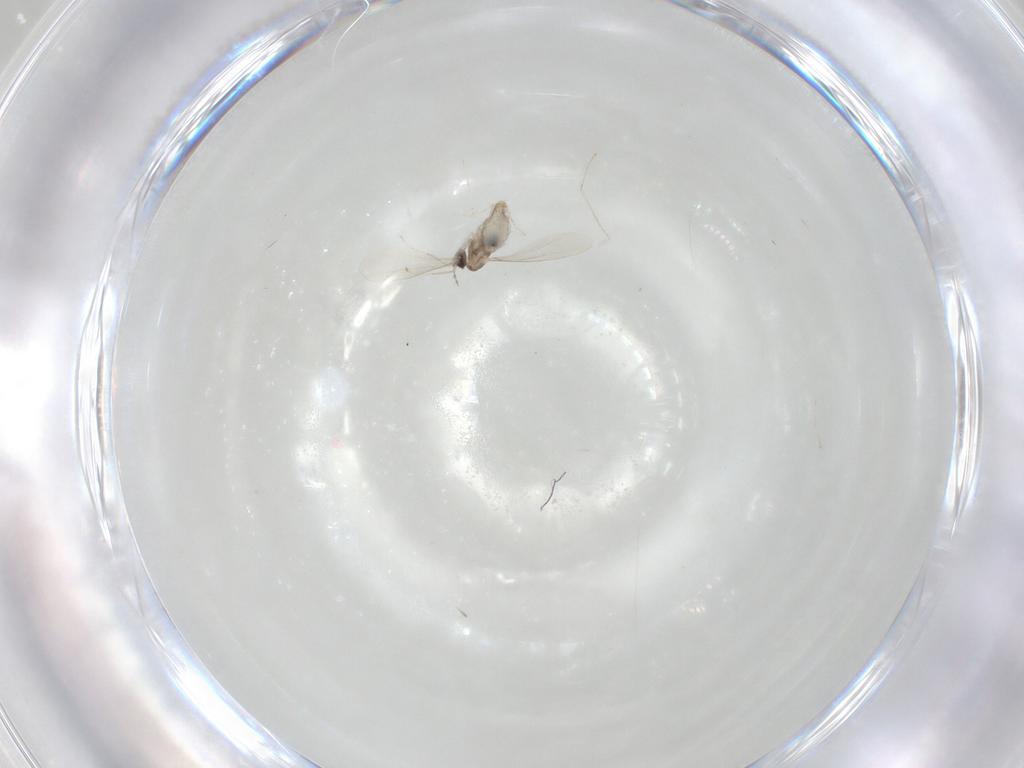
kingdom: Animalia
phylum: Arthropoda
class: Insecta
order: Diptera
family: Cecidomyiidae
